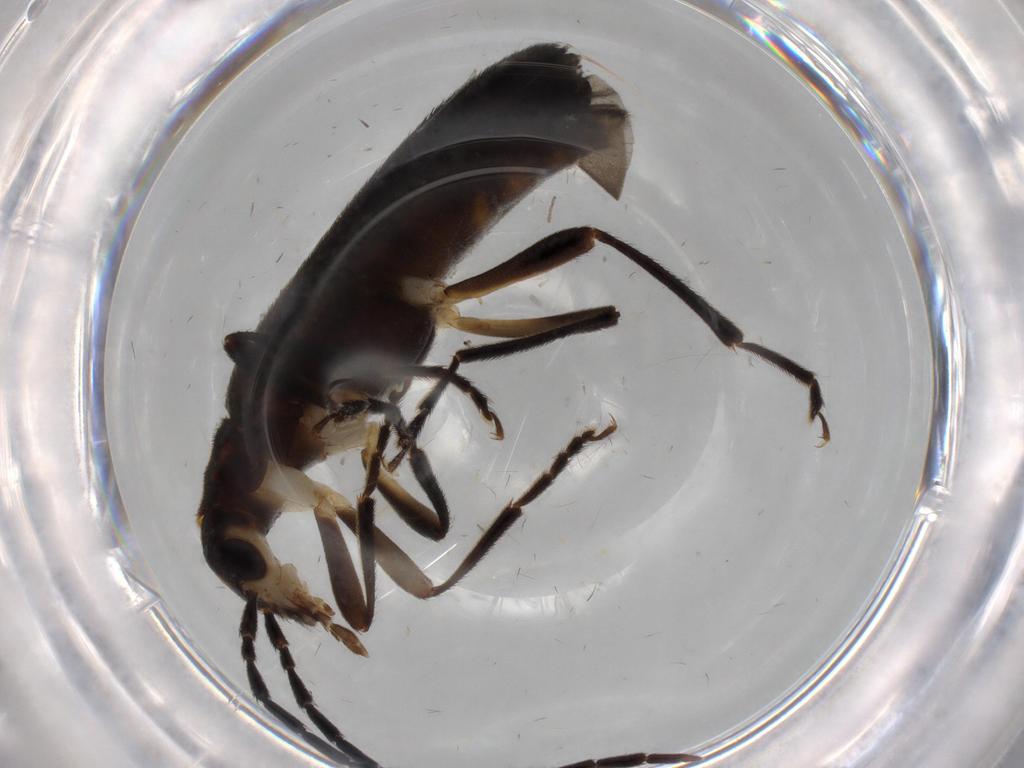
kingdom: Animalia
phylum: Arthropoda
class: Insecta
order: Coleoptera
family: Oedemeridae
